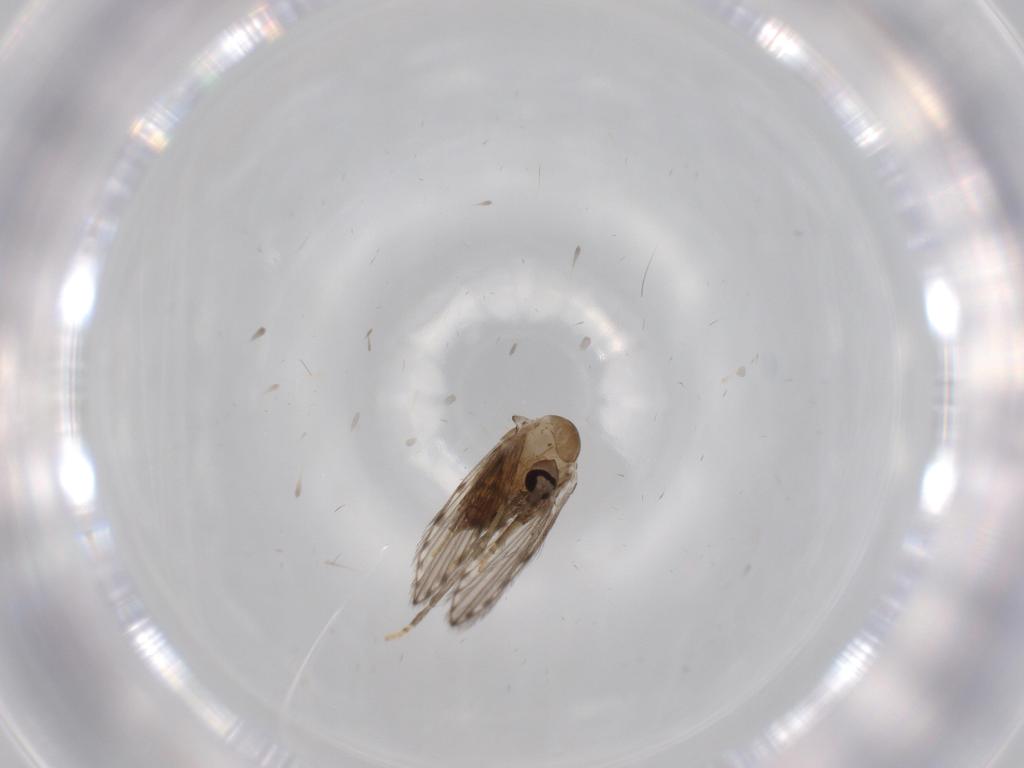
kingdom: Animalia
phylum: Arthropoda
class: Insecta
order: Diptera
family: Psychodidae
